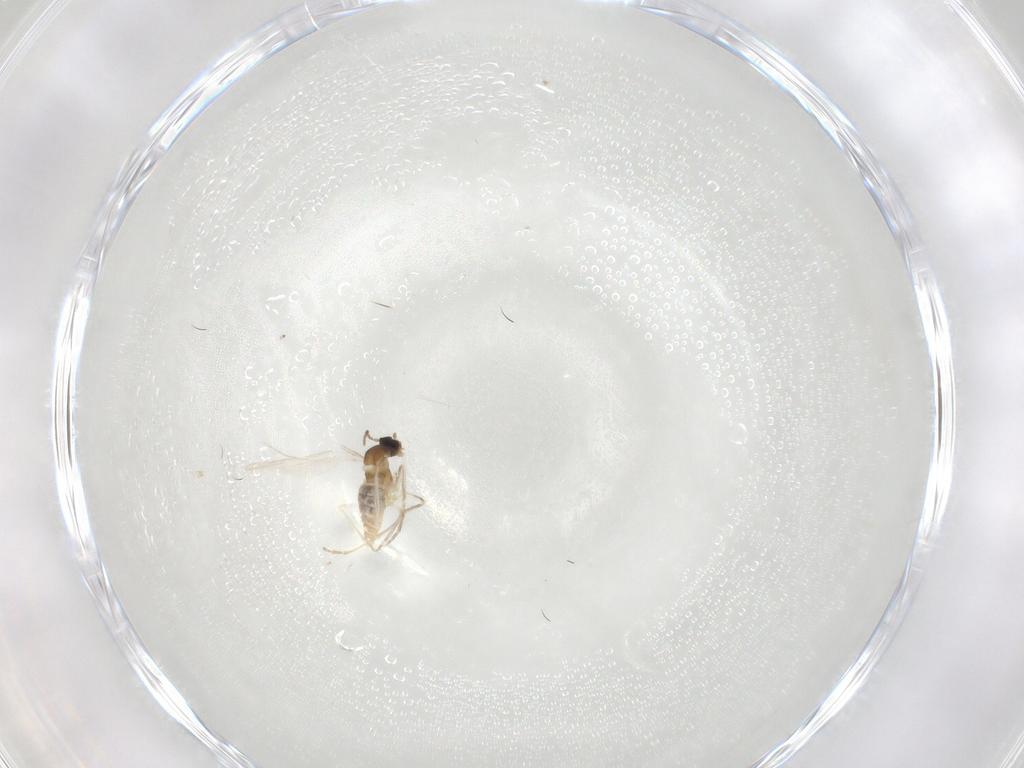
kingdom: Animalia
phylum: Arthropoda
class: Insecta
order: Diptera
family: Cecidomyiidae
